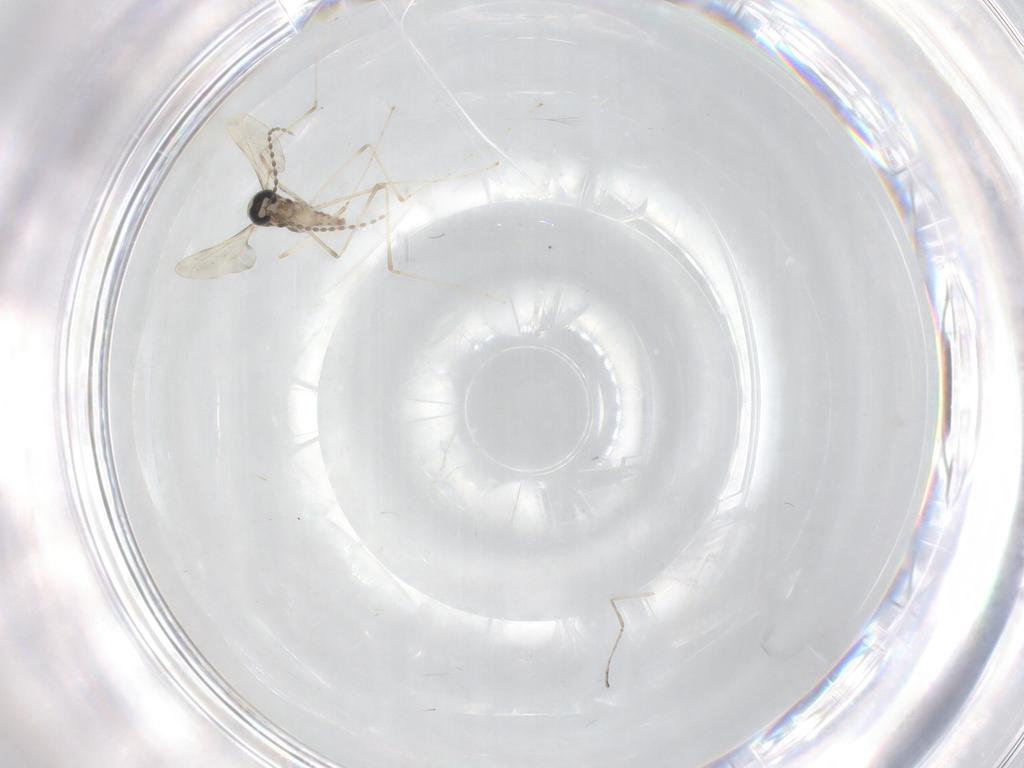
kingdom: Animalia
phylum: Arthropoda
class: Insecta
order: Diptera
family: Cecidomyiidae
